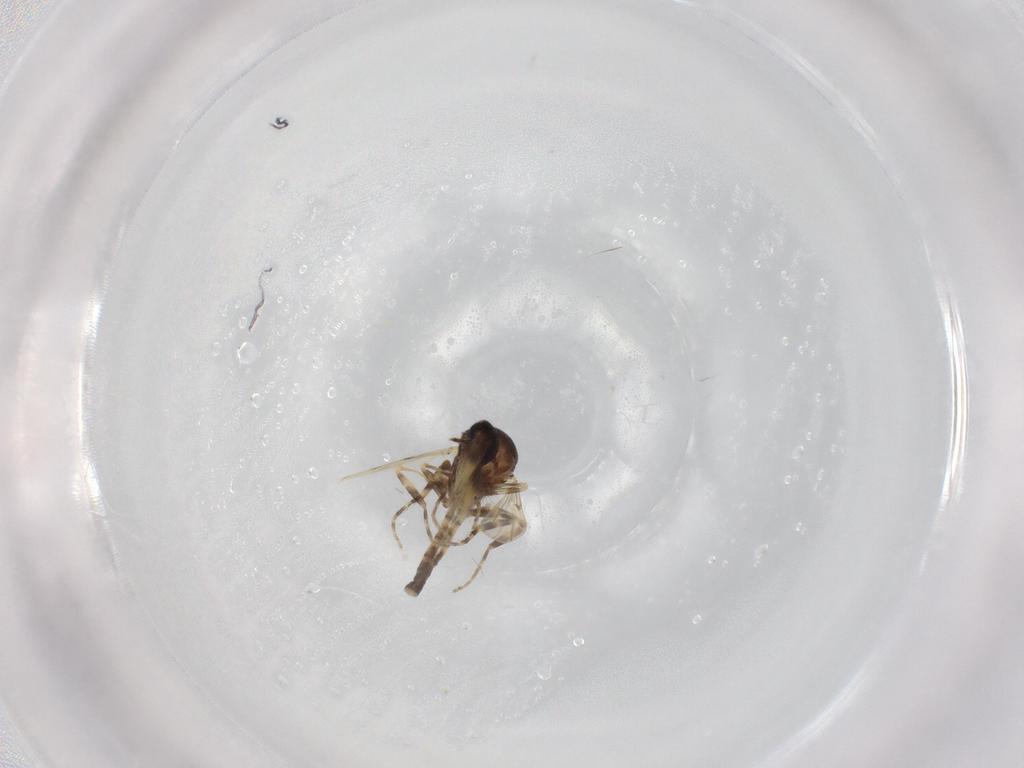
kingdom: Animalia
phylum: Arthropoda
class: Insecta
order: Diptera
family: Ceratopogonidae
